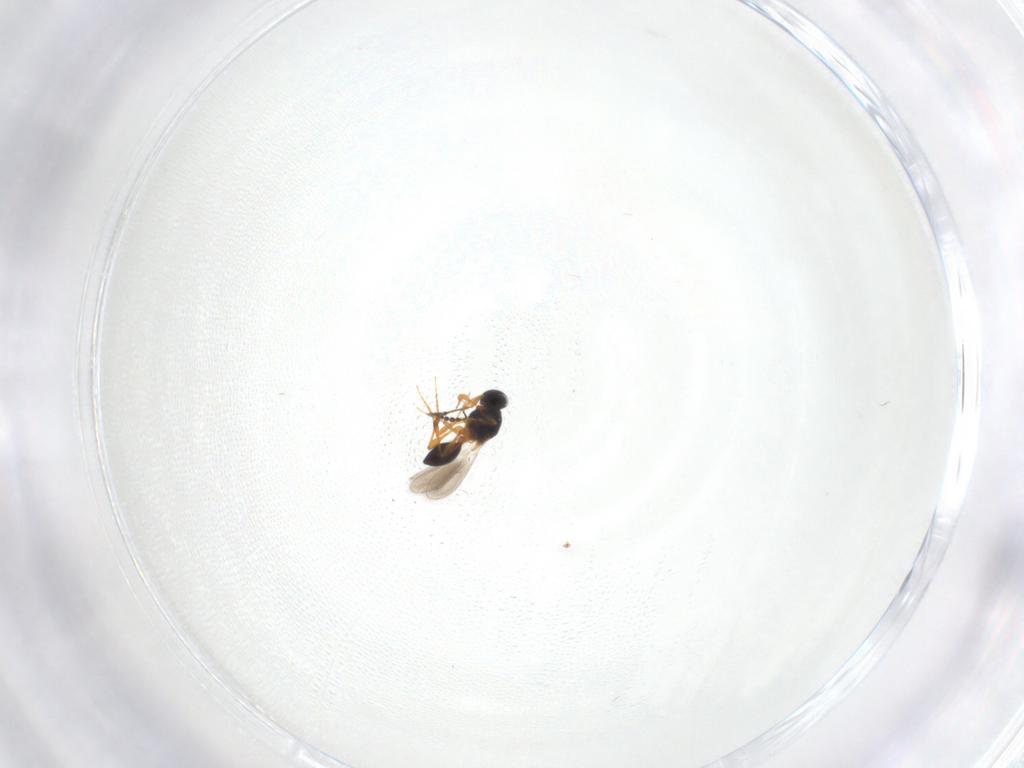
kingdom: Animalia
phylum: Arthropoda
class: Insecta
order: Hymenoptera
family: Platygastridae
